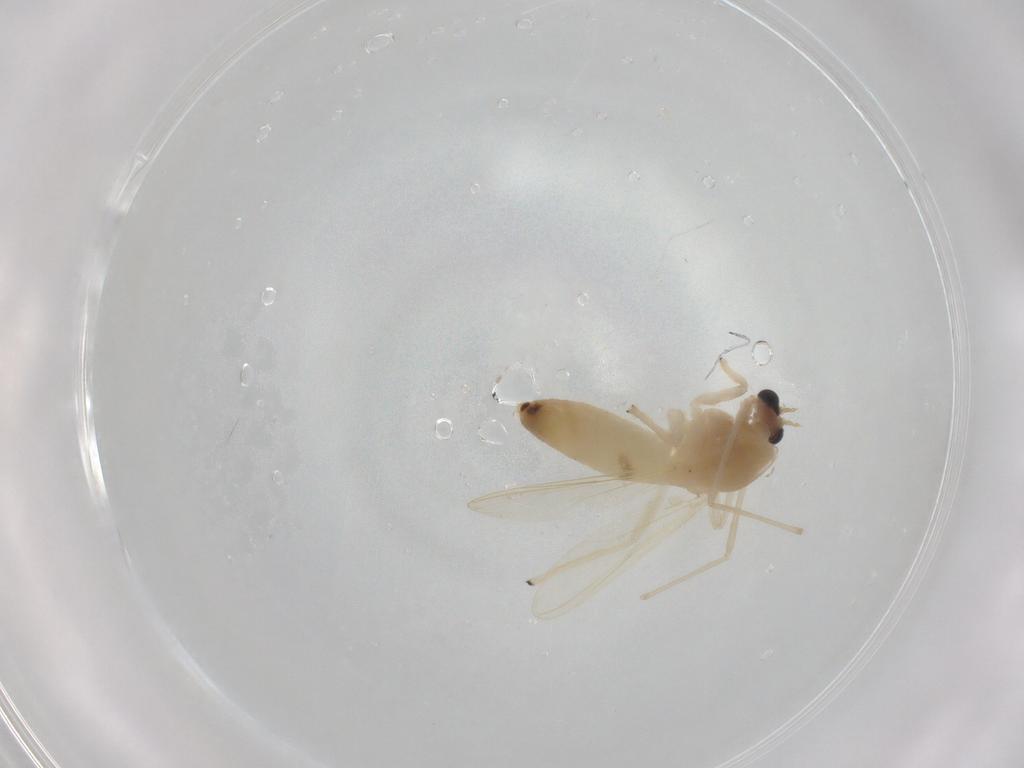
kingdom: Animalia
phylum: Arthropoda
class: Insecta
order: Diptera
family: Chironomidae
